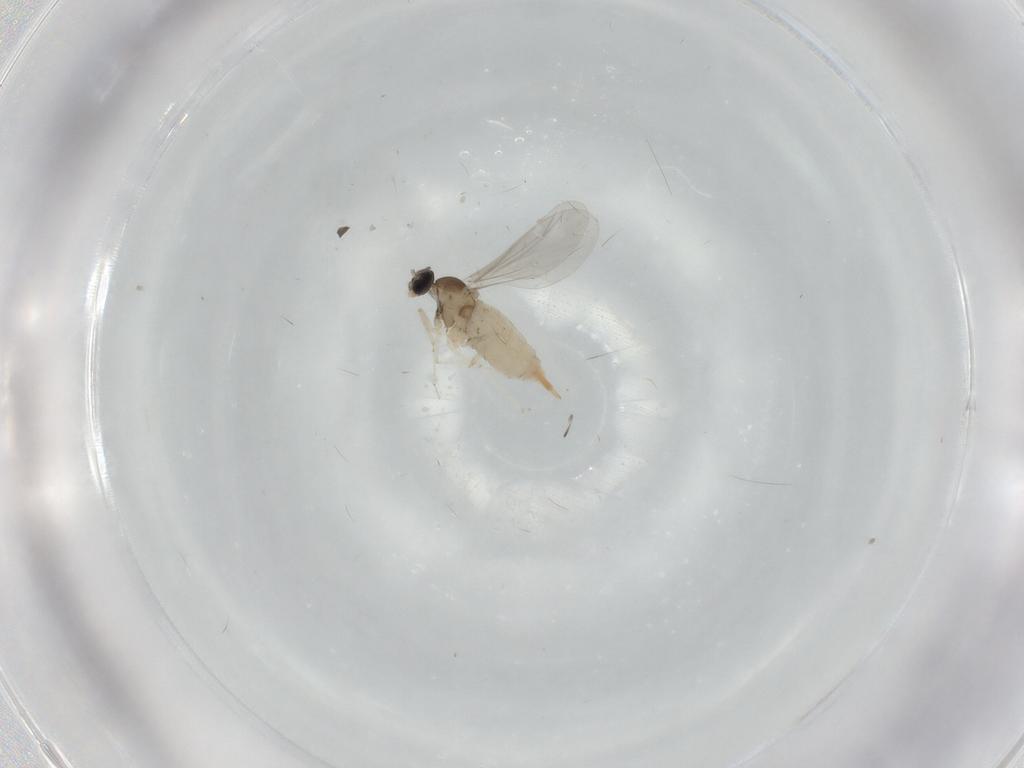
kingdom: Animalia
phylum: Arthropoda
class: Insecta
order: Diptera
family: Cecidomyiidae
